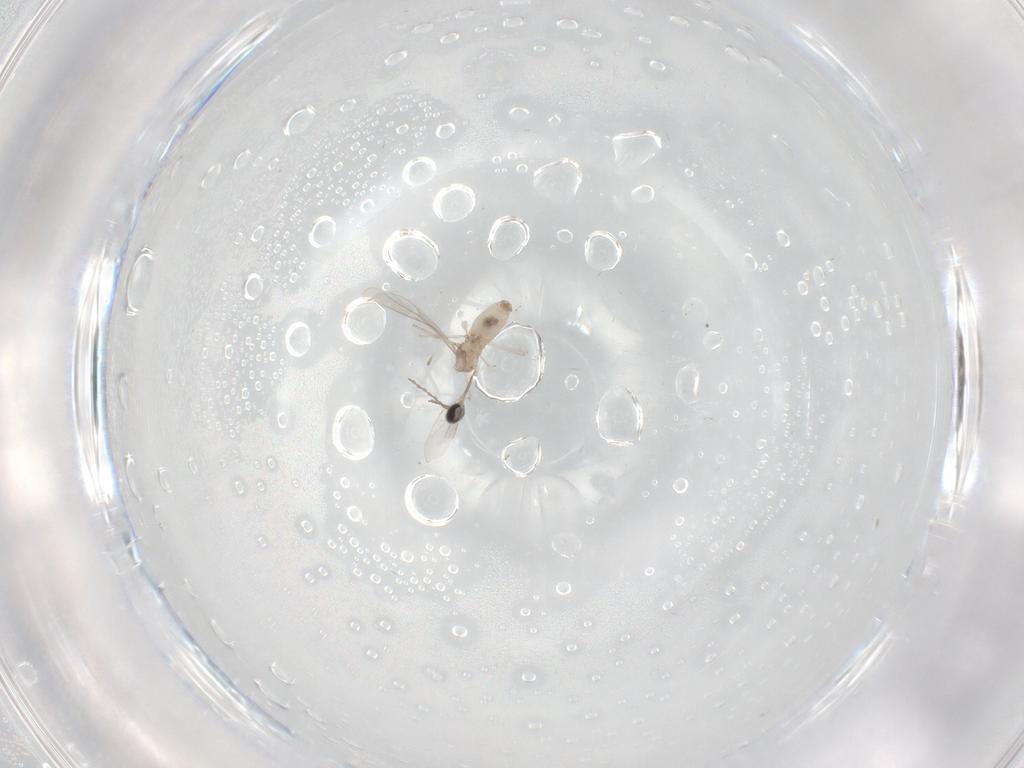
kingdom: Animalia
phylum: Arthropoda
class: Insecta
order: Diptera
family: Cecidomyiidae
